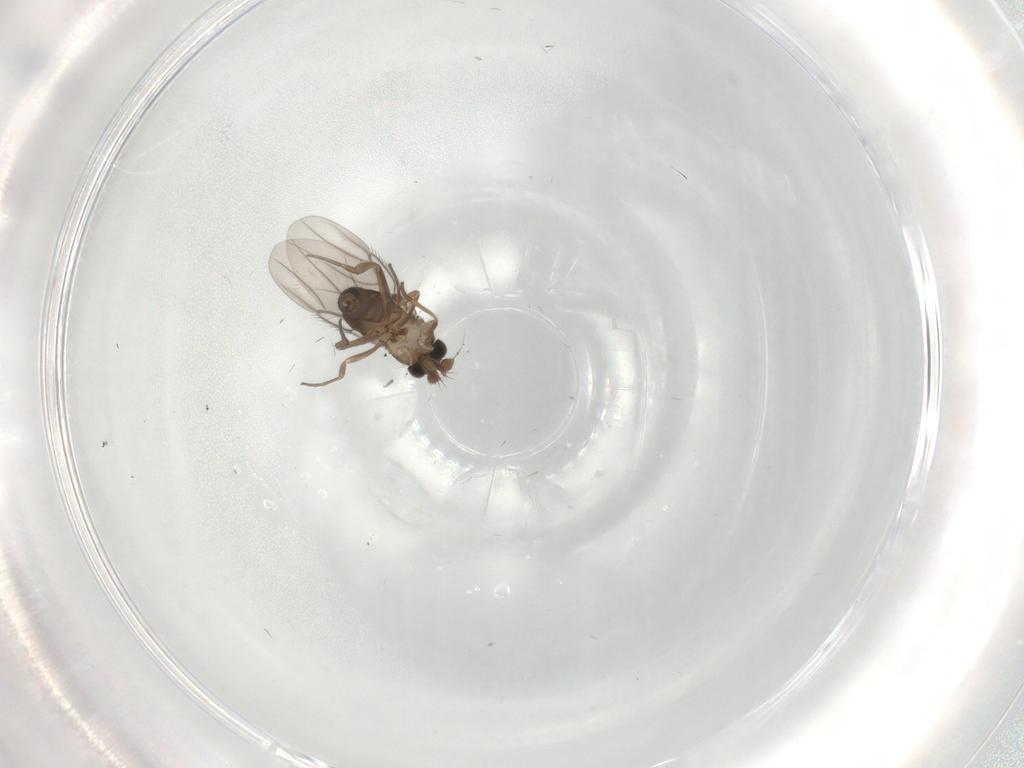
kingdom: Animalia
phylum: Arthropoda
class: Insecta
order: Diptera
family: Phoridae
